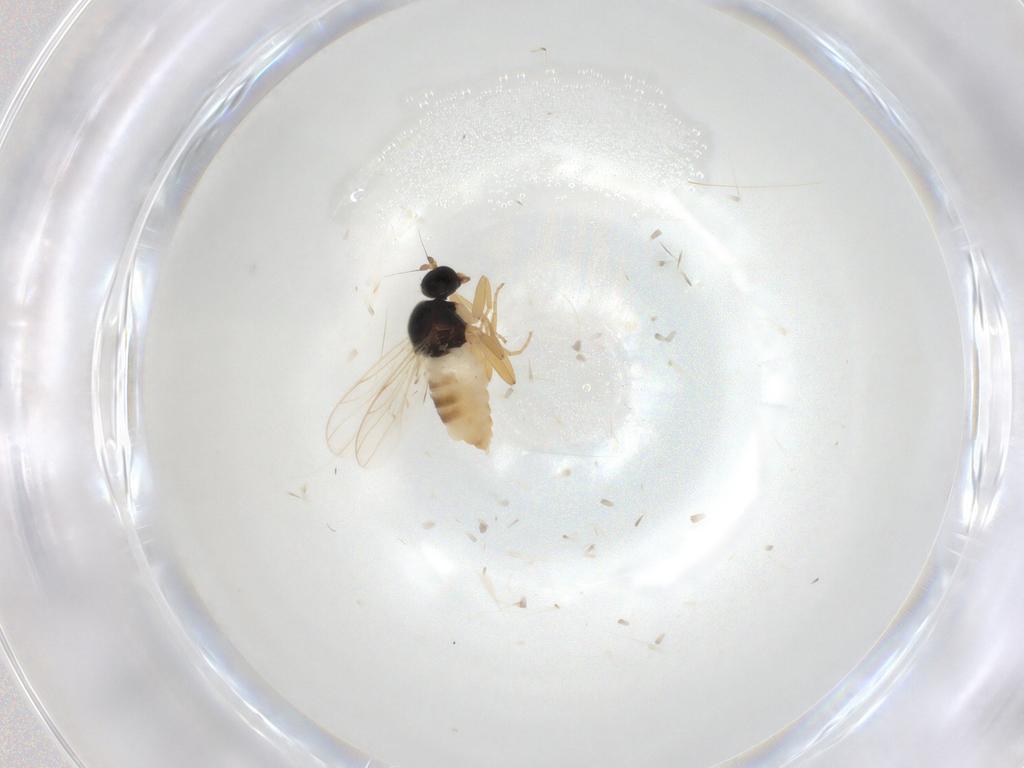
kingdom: Animalia
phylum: Arthropoda
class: Insecta
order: Diptera
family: Hybotidae
